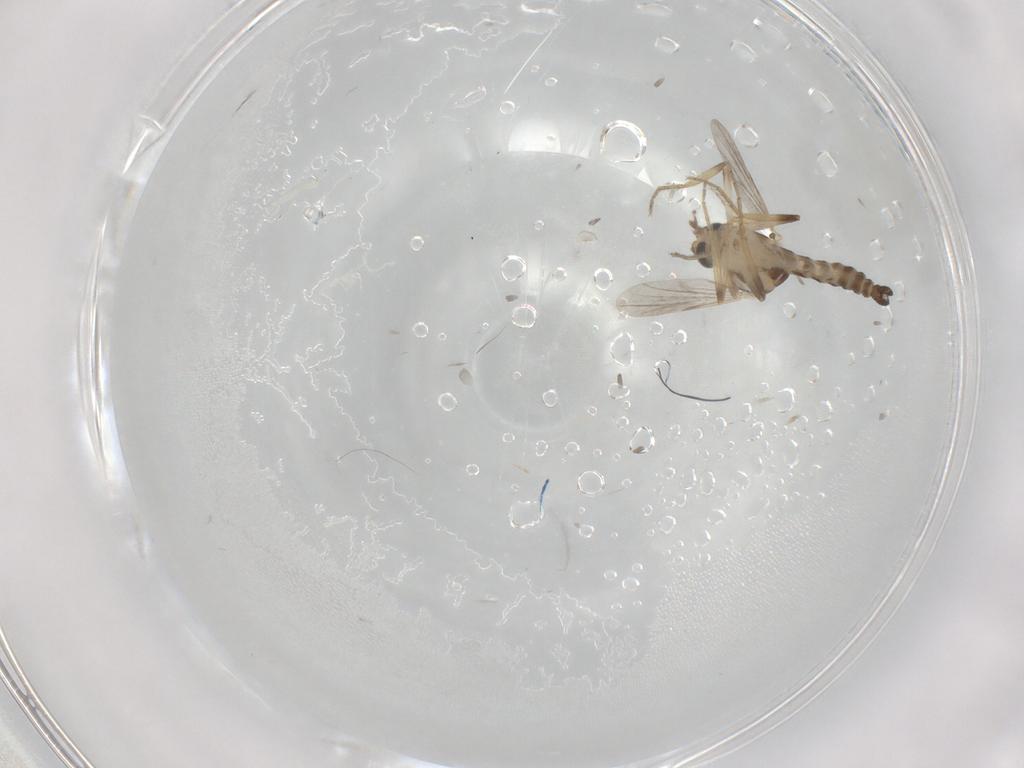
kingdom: Animalia
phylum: Arthropoda
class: Insecta
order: Diptera
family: Ceratopogonidae
